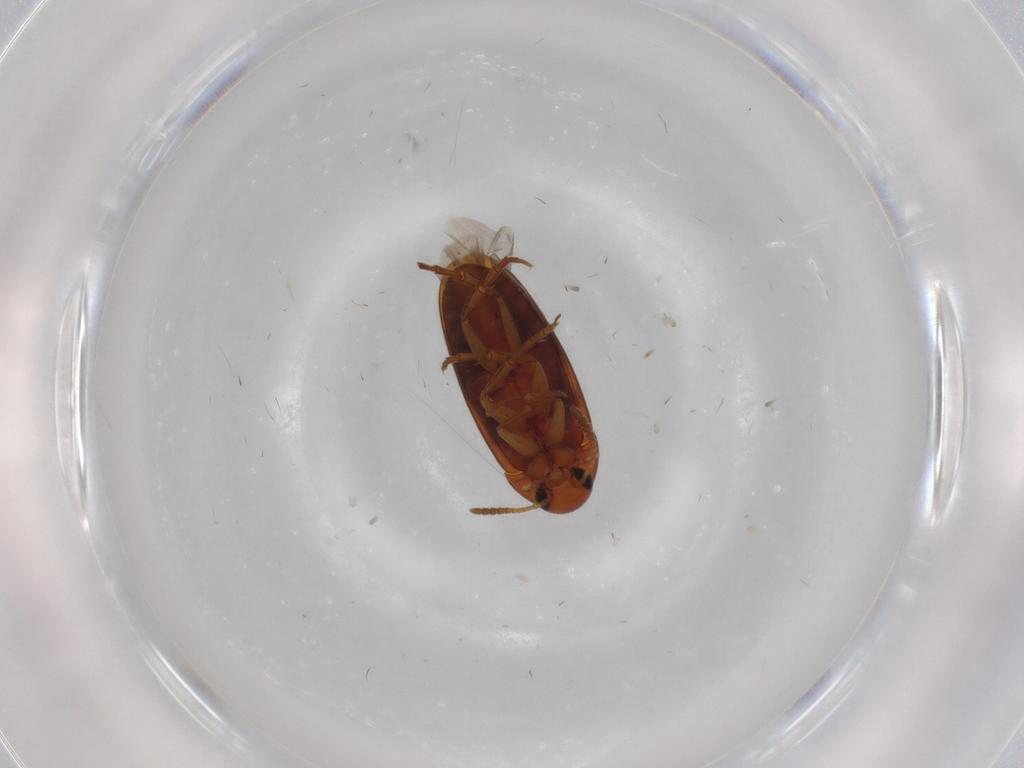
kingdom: Animalia
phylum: Arthropoda
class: Insecta
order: Coleoptera
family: Scraptiidae
